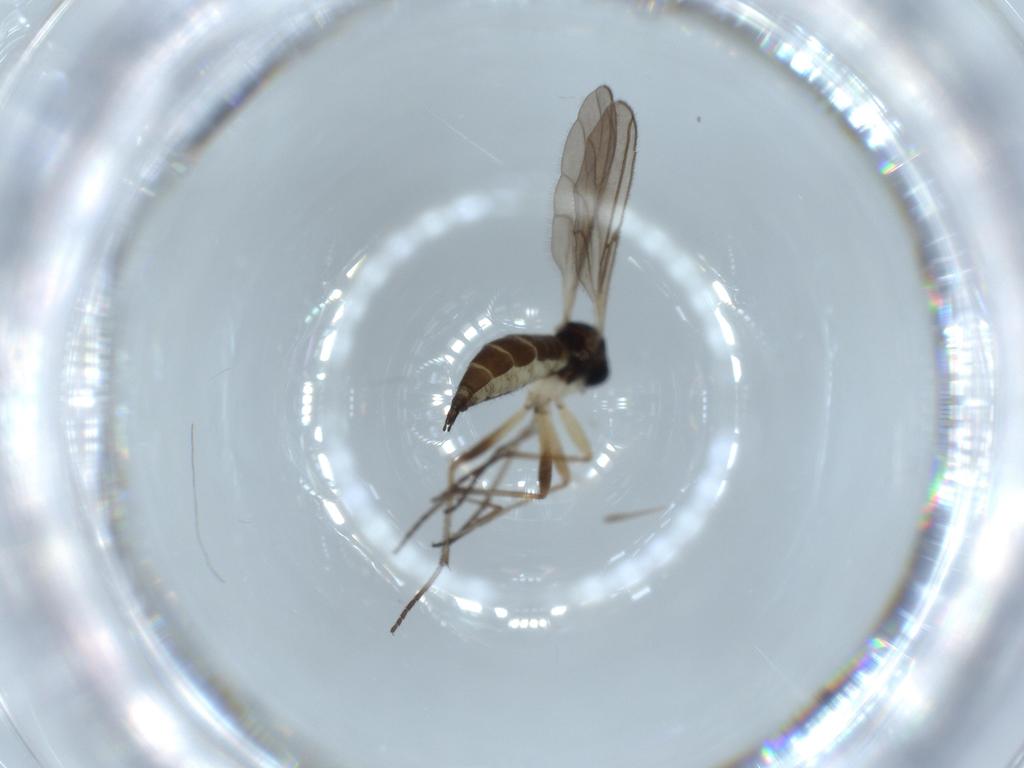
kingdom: Animalia
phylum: Arthropoda
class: Insecta
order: Diptera
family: Sciaridae
